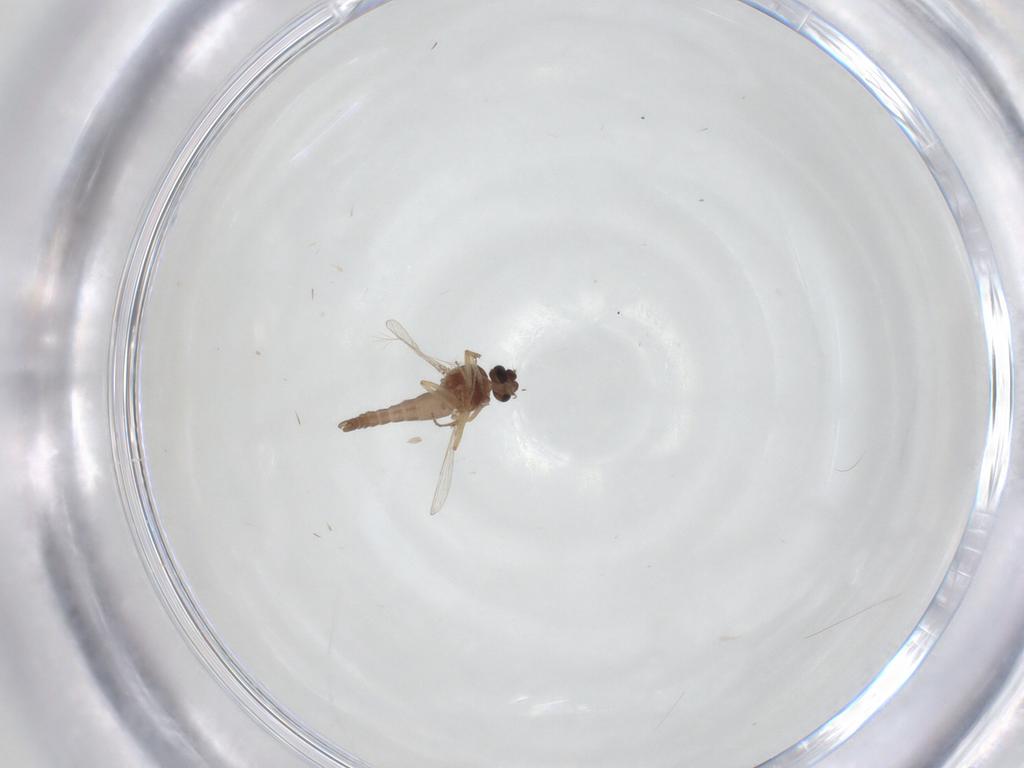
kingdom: Animalia
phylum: Arthropoda
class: Insecta
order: Diptera
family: Ceratopogonidae
